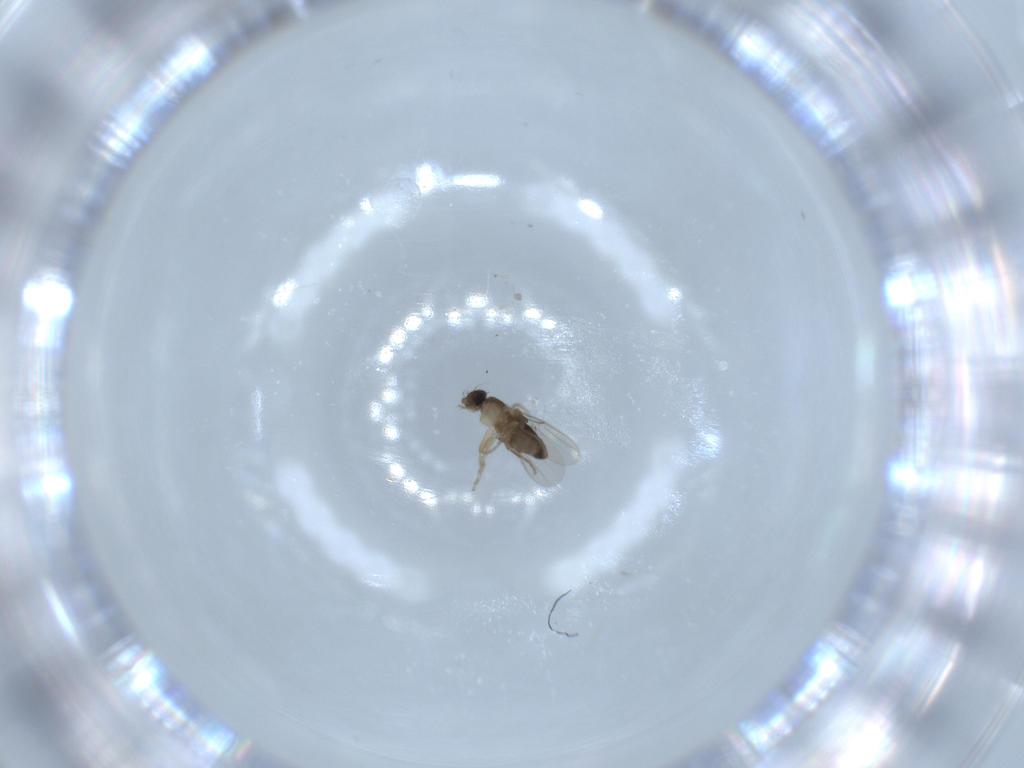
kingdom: Animalia
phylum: Arthropoda
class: Insecta
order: Diptera
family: Phoridae
